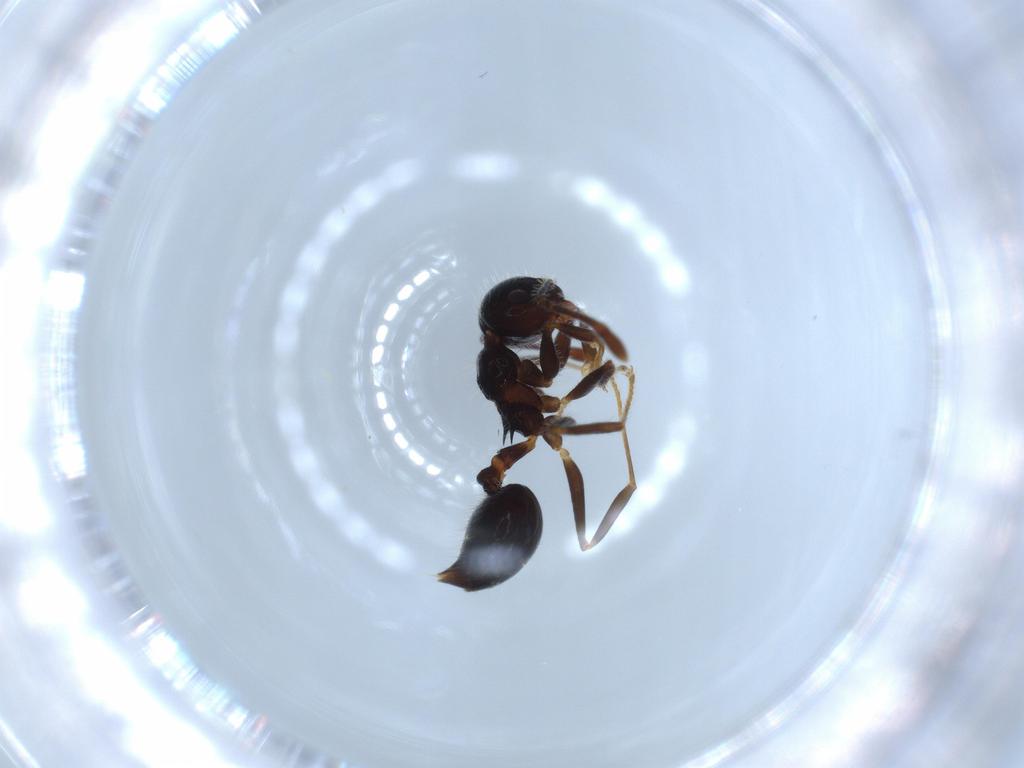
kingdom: Animalia
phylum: Arthropoda
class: Insecta
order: Hymenoptera
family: Formicidae
